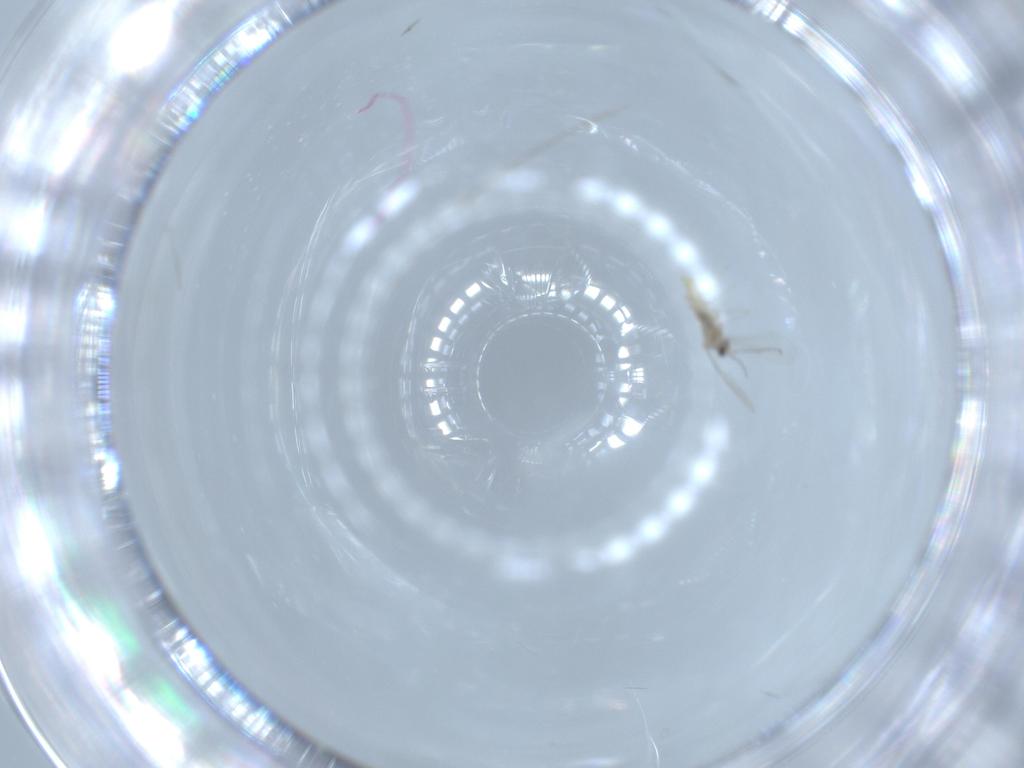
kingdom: Animalia
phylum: Arthropoda
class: Insecta
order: Diptera
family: Cecidomyiidae
